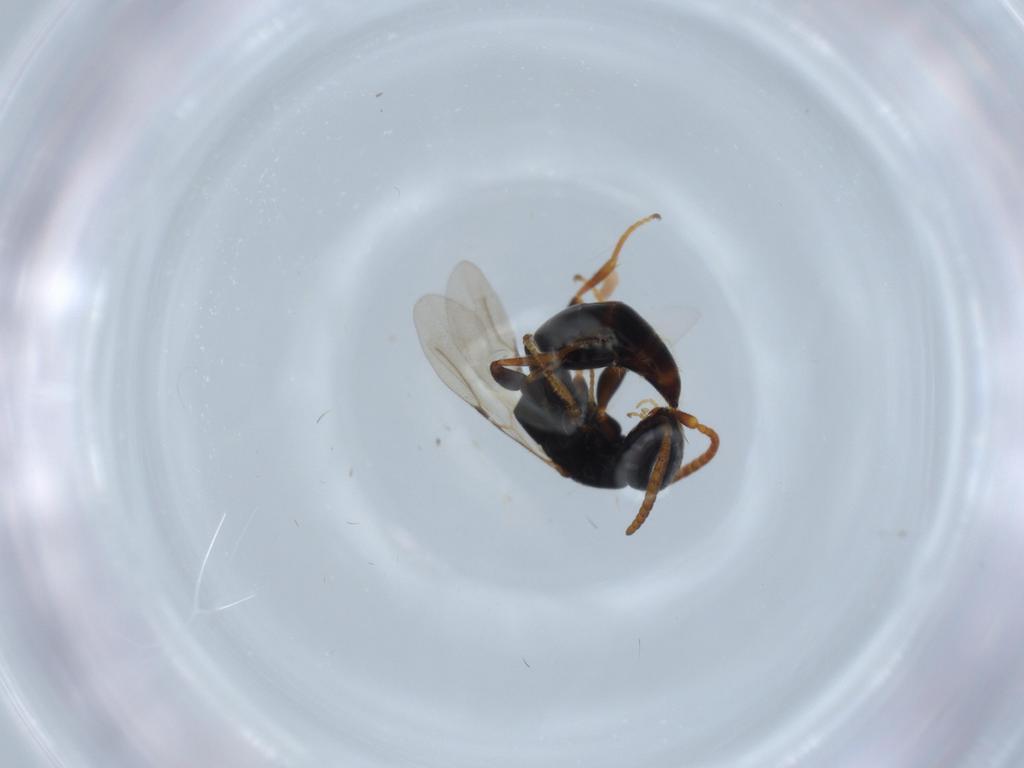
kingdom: Animalia
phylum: Arthropoda
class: Insecta
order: Hymenoptera
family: Bethylidae
